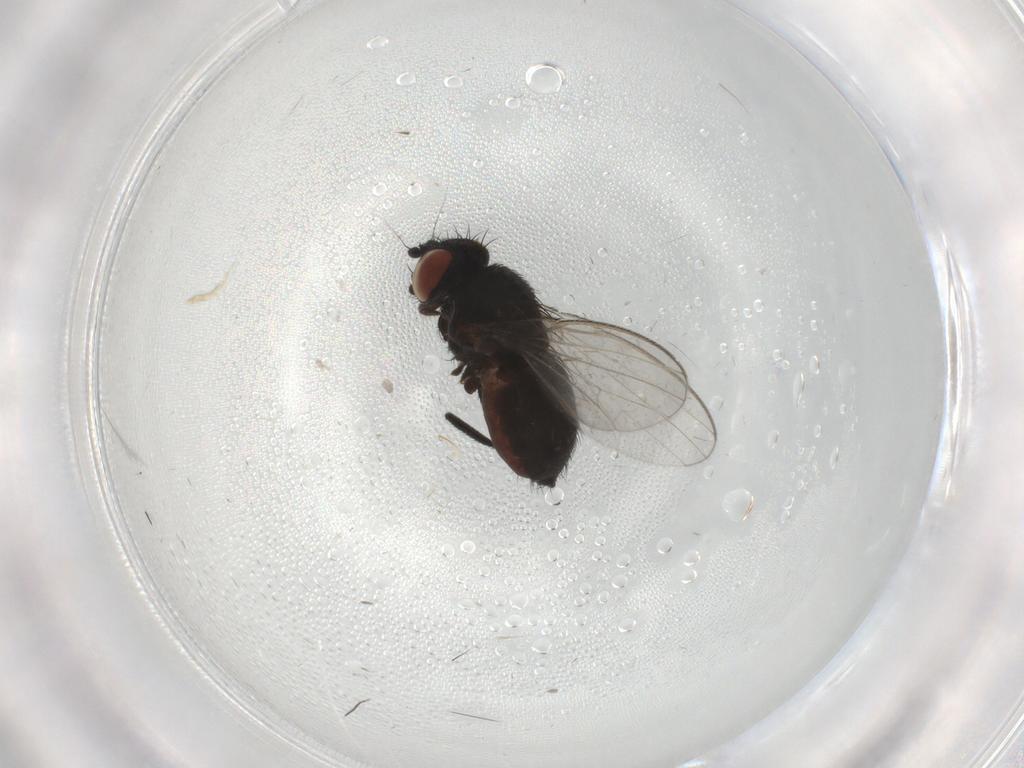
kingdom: Animalia
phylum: Arthropoda
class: Insecta
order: Diptera
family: Milichiidae
